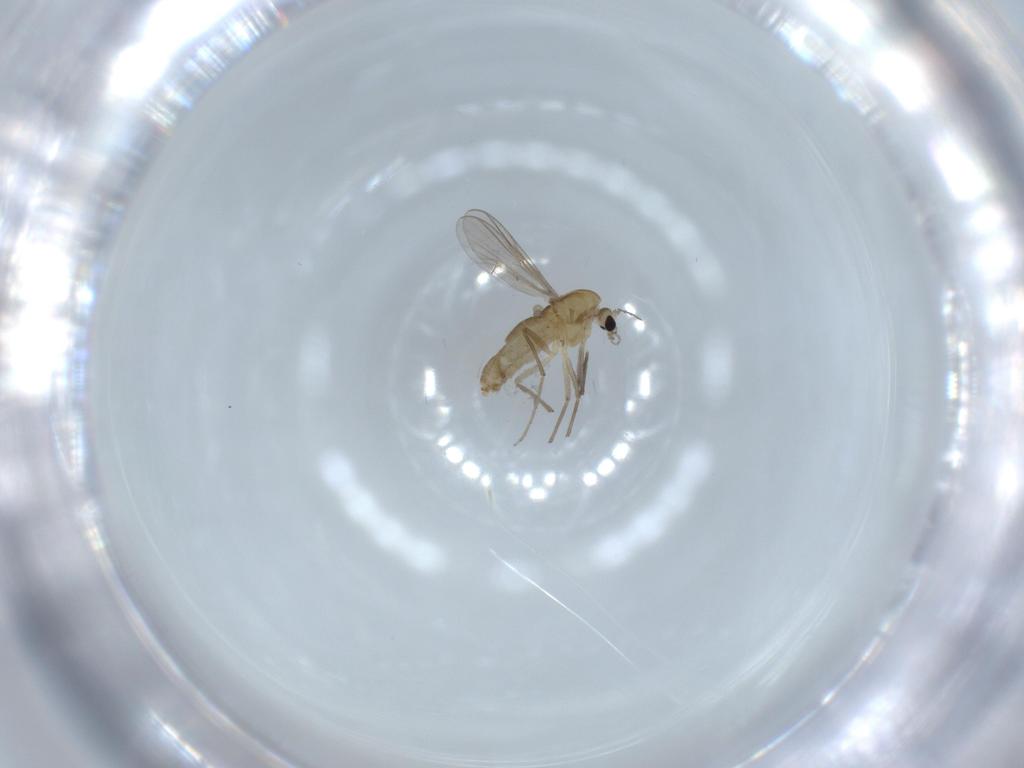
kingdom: Animalia
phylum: Arthropoda
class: Insecta
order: Diptera
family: Chironomidae
